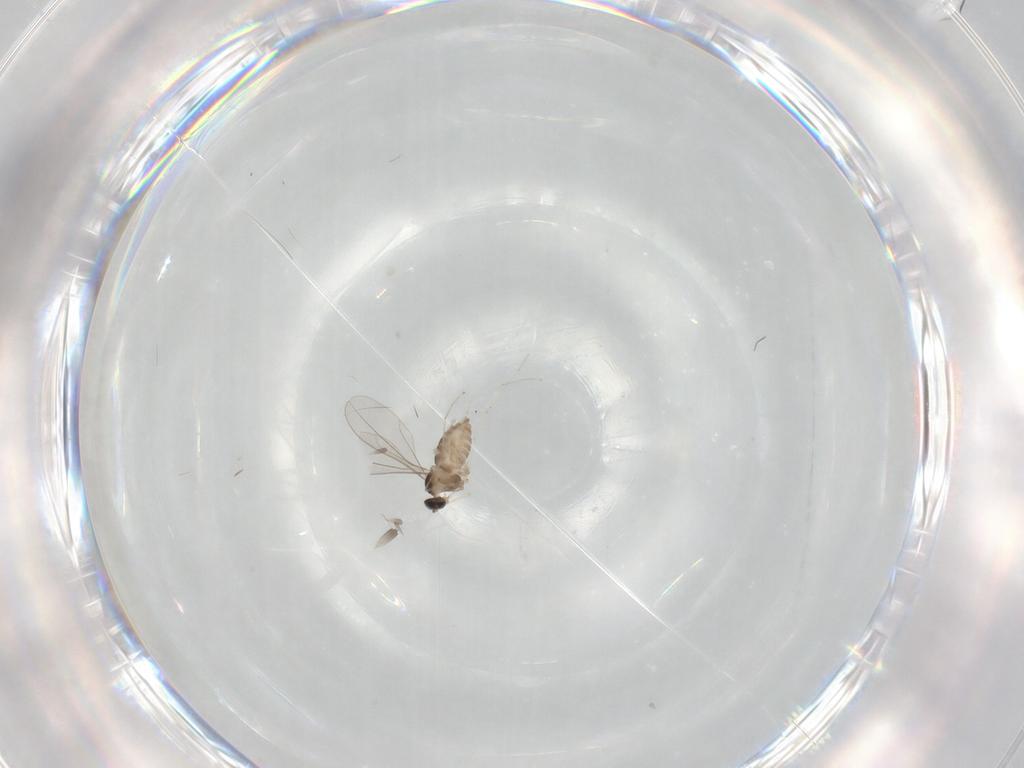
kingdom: Animalia
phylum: Arthropoda
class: Insecta
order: Diptera
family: Cecidomyiidae
